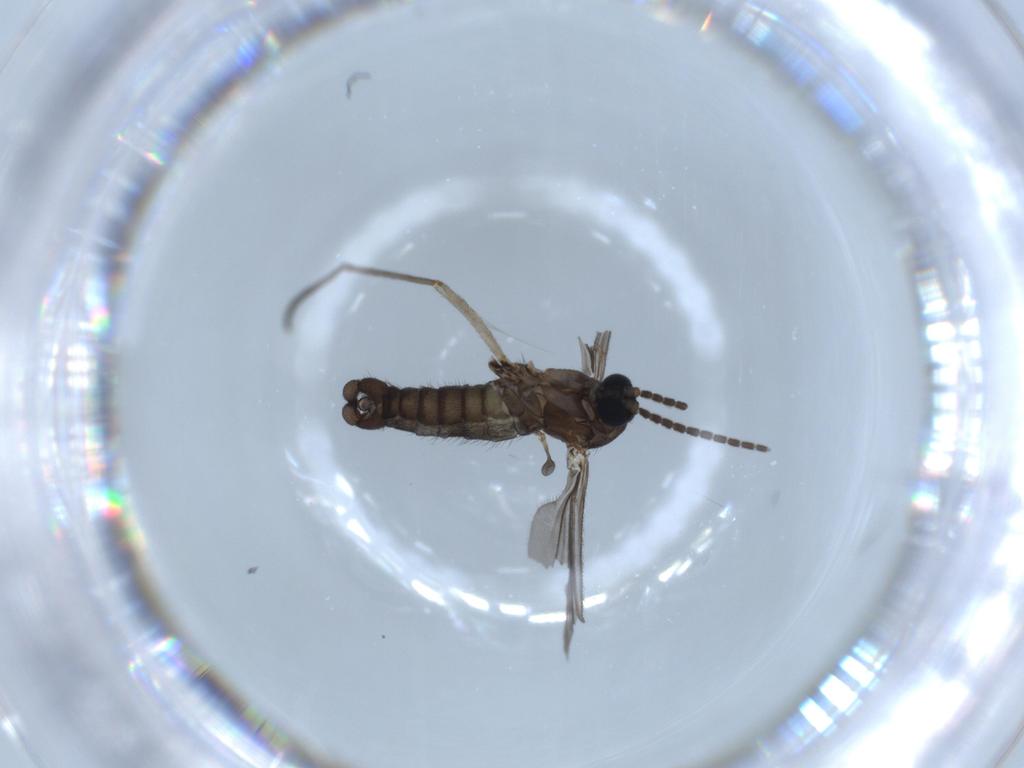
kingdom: Animalia
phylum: Arthropoda
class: Insecta
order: Diptera
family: Sciaridae
